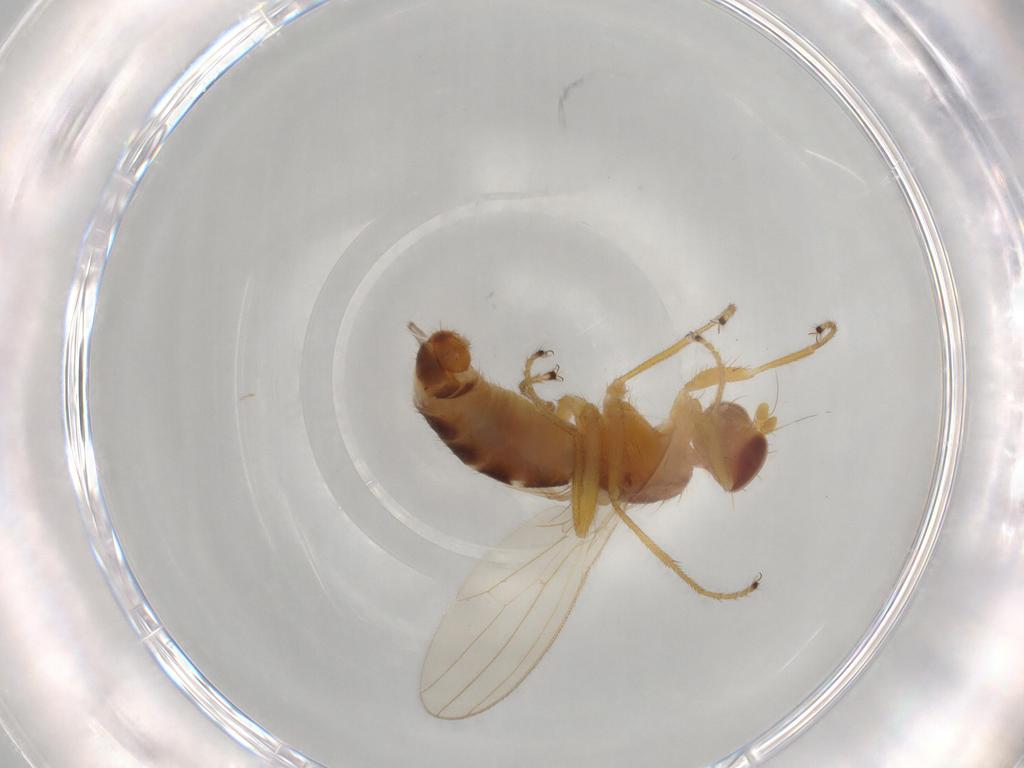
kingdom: Animalia
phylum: Arthropoda
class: Insecta
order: Diptera
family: Anthomyzidae
